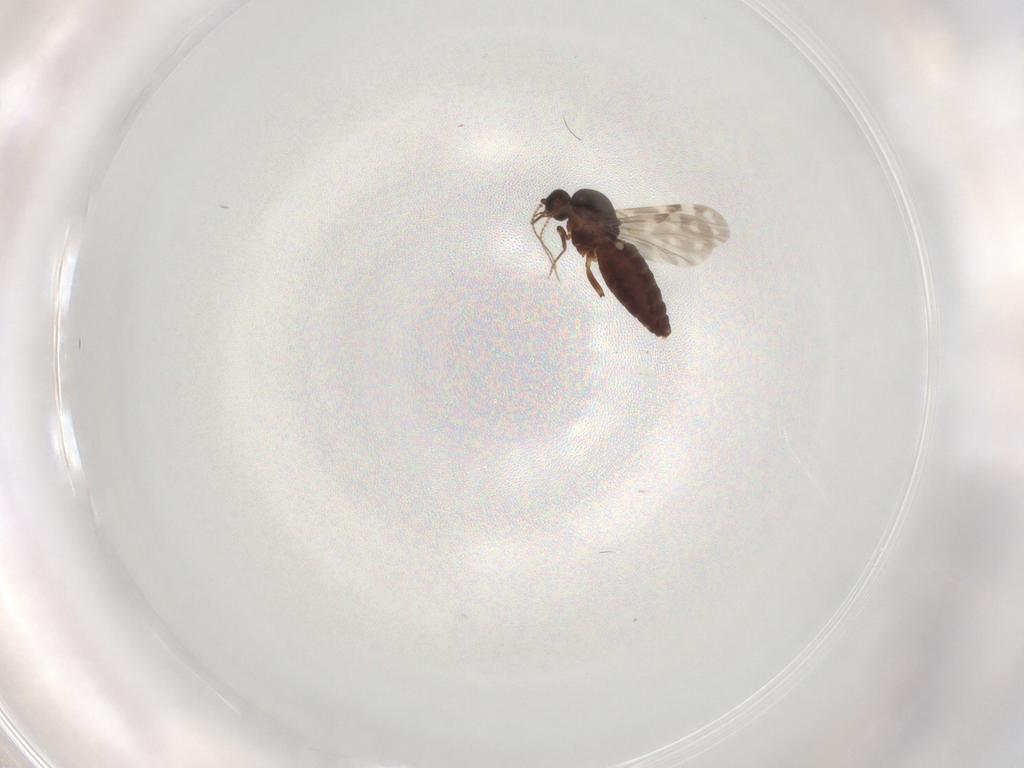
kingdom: Animalia
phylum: Arthropoda
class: Insecta
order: Diptera
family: Ceratopogonidae
